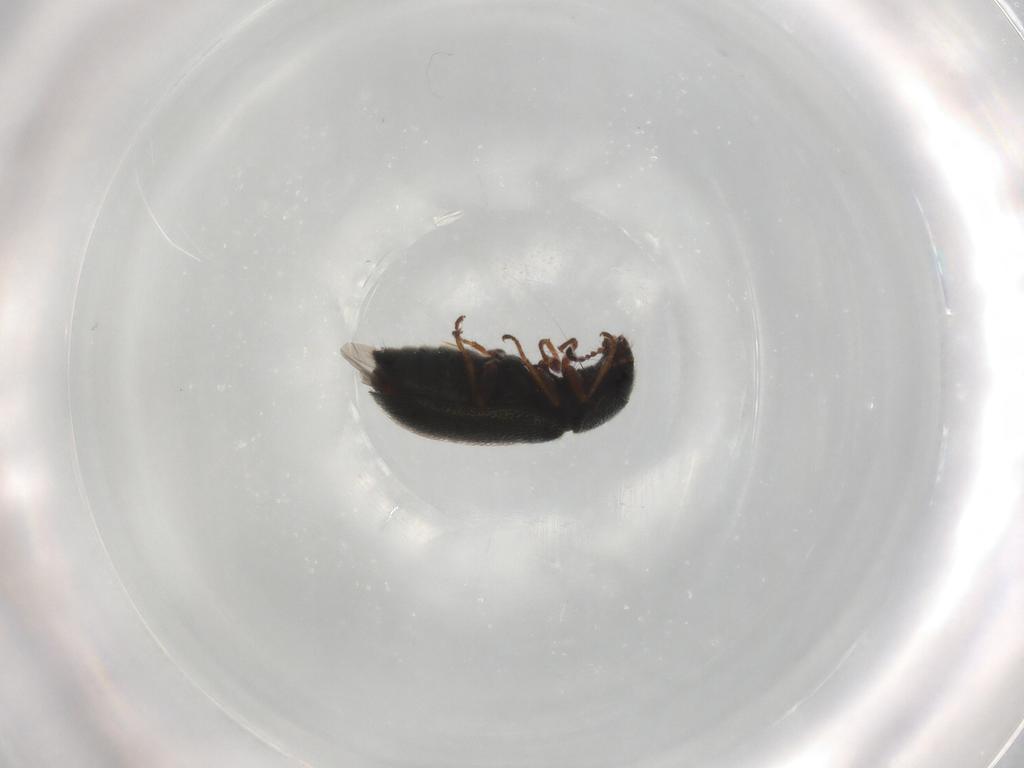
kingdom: Animalia
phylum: Arthropoda
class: Insecta
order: Coleoptera
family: Melyridae
